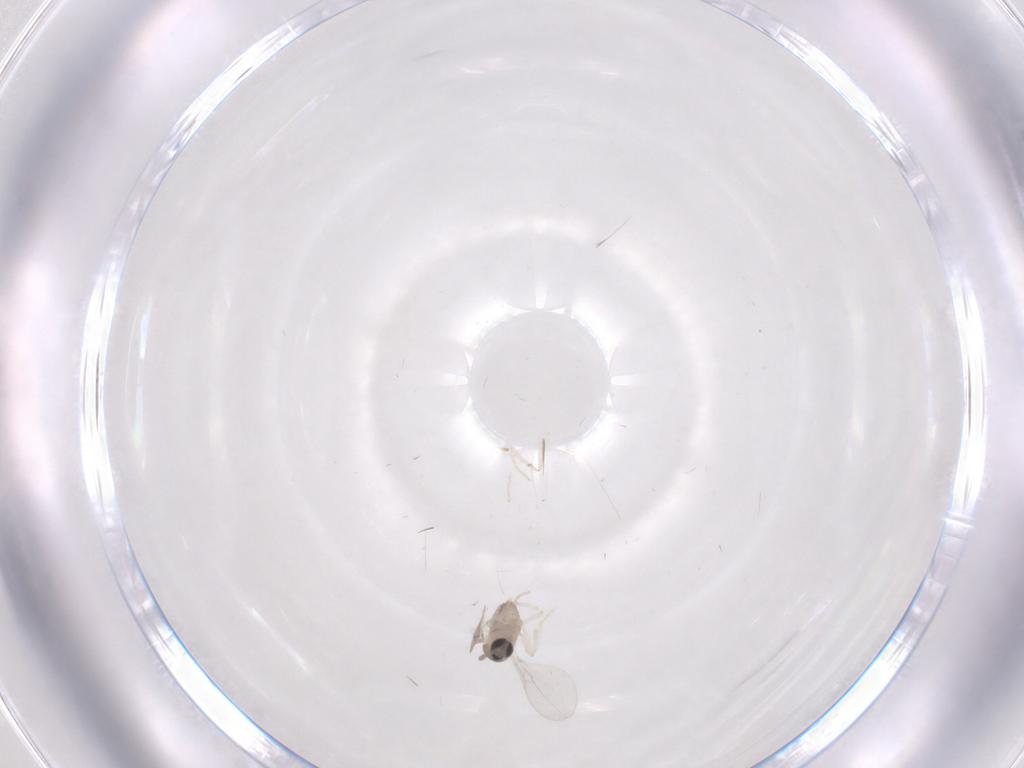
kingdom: Animalia
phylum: Arthropoda
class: Insecta
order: Diptera
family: Cecidomyiidae
